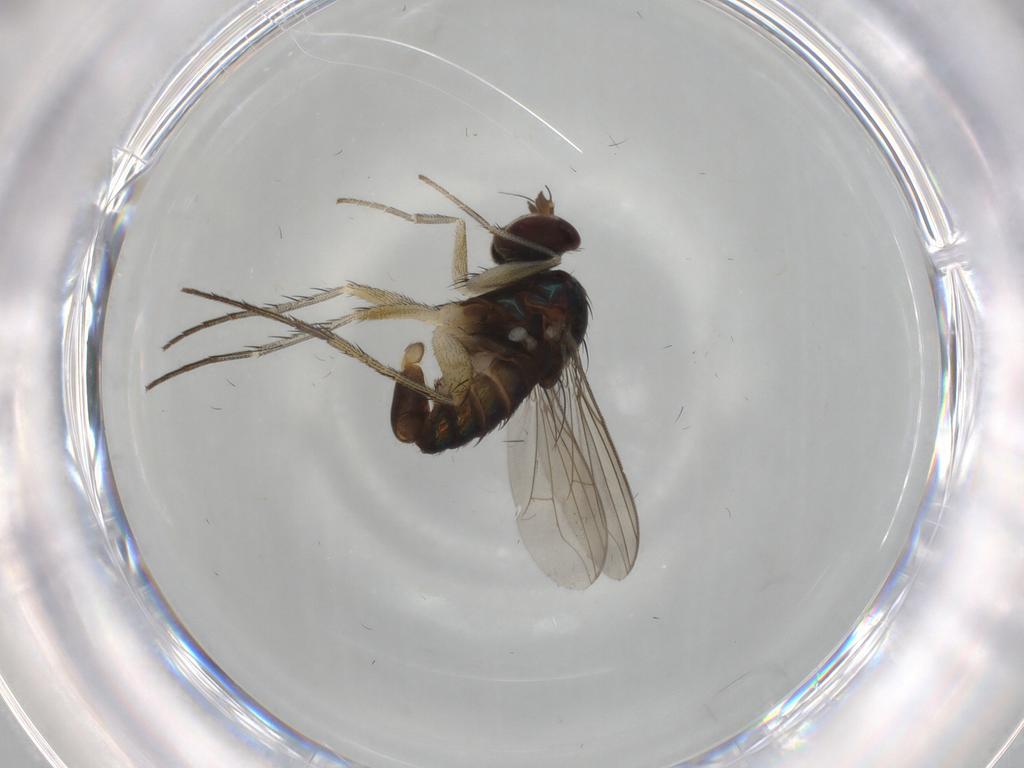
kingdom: Animalia
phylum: Arthropoda
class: Insecta
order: Diptera
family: Dolichopodidae
